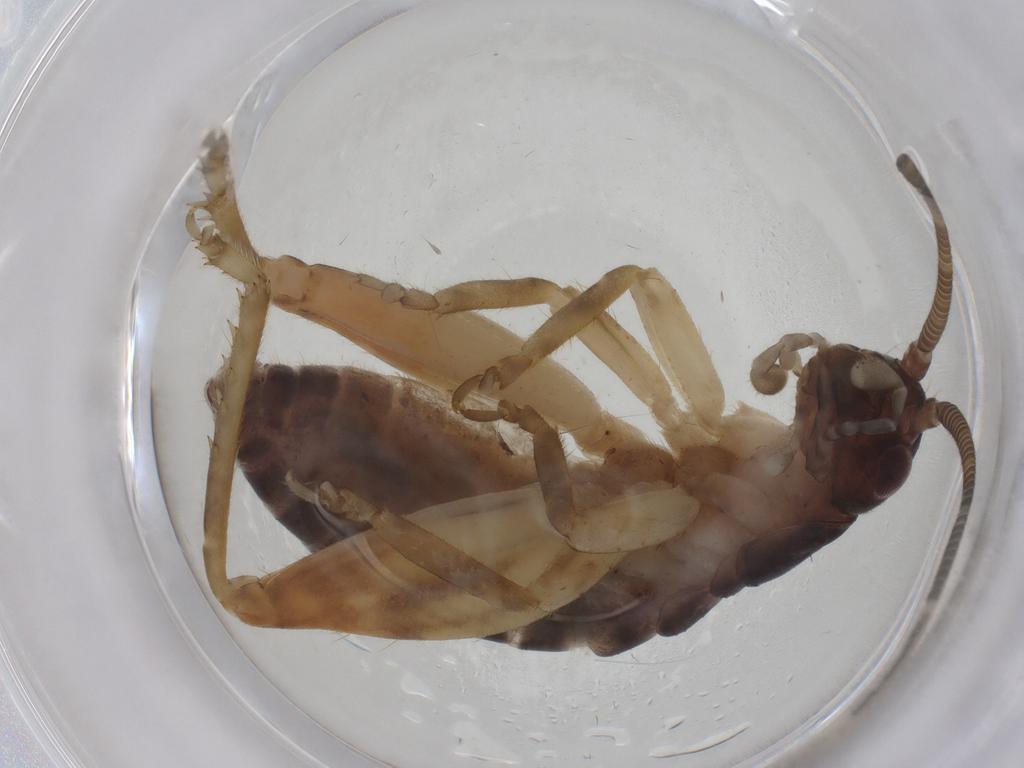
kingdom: Animalia
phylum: Arthropoda
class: Insecta
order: Orthoptera
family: Gryllidae
